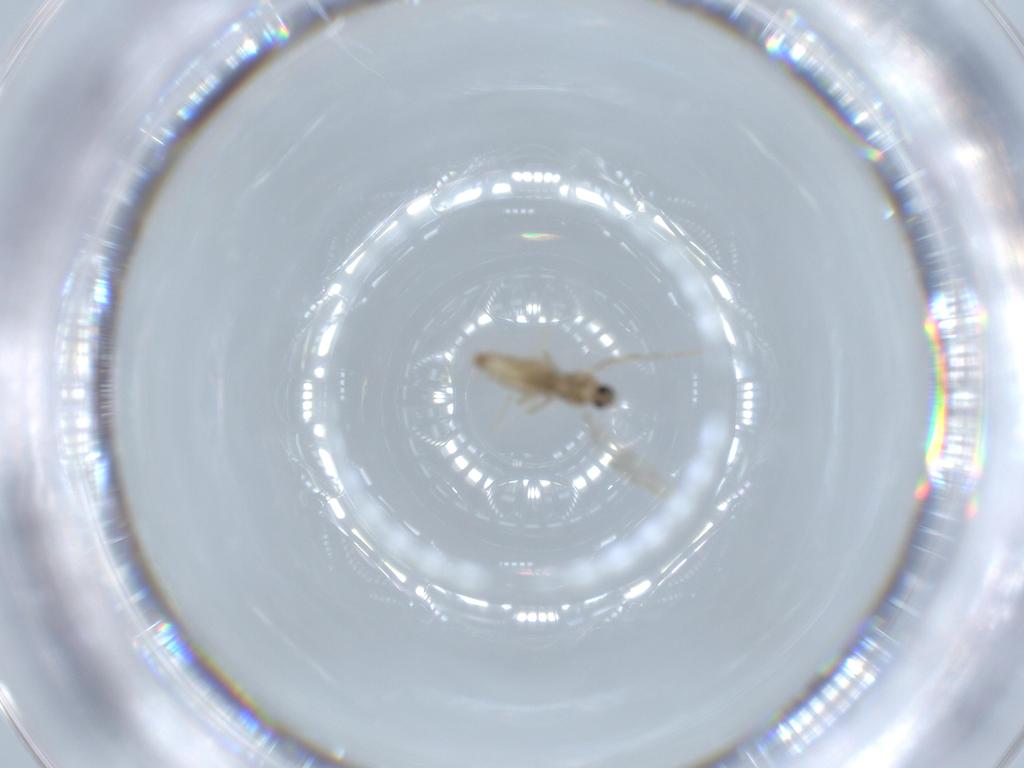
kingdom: Animalia
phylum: Arthropoda
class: Insecta
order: Diptera
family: Cecidomyiidae
